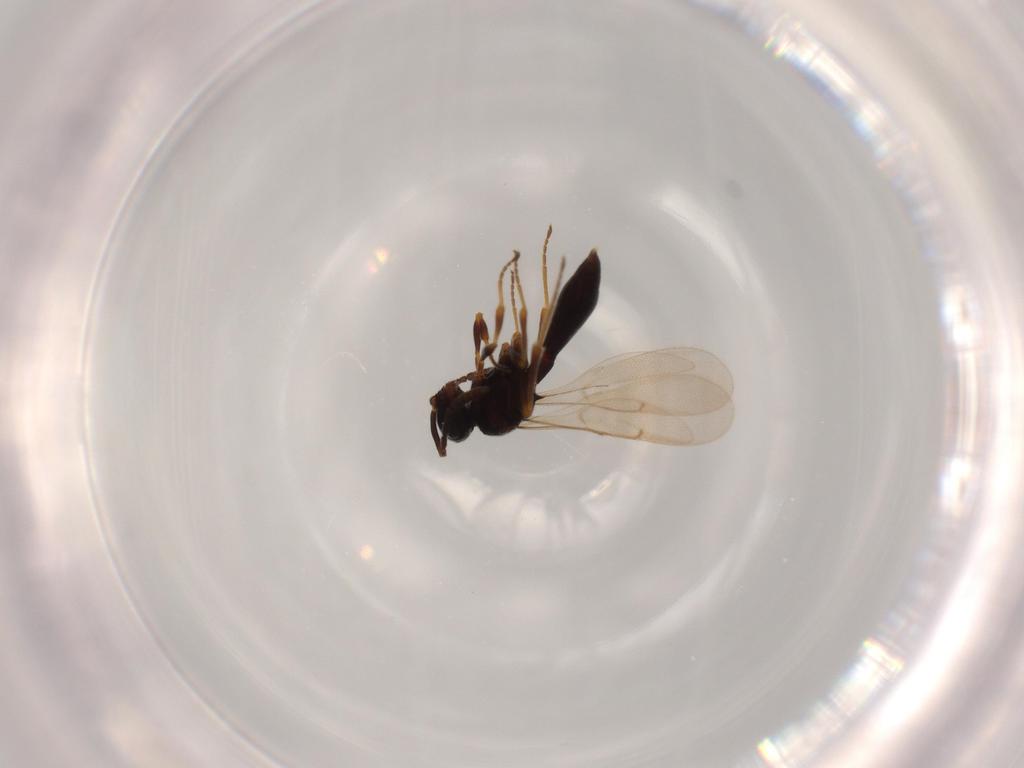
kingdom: Animalia
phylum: Arthropoda
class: Insecta
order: Hymenoptera
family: Scelionidae
